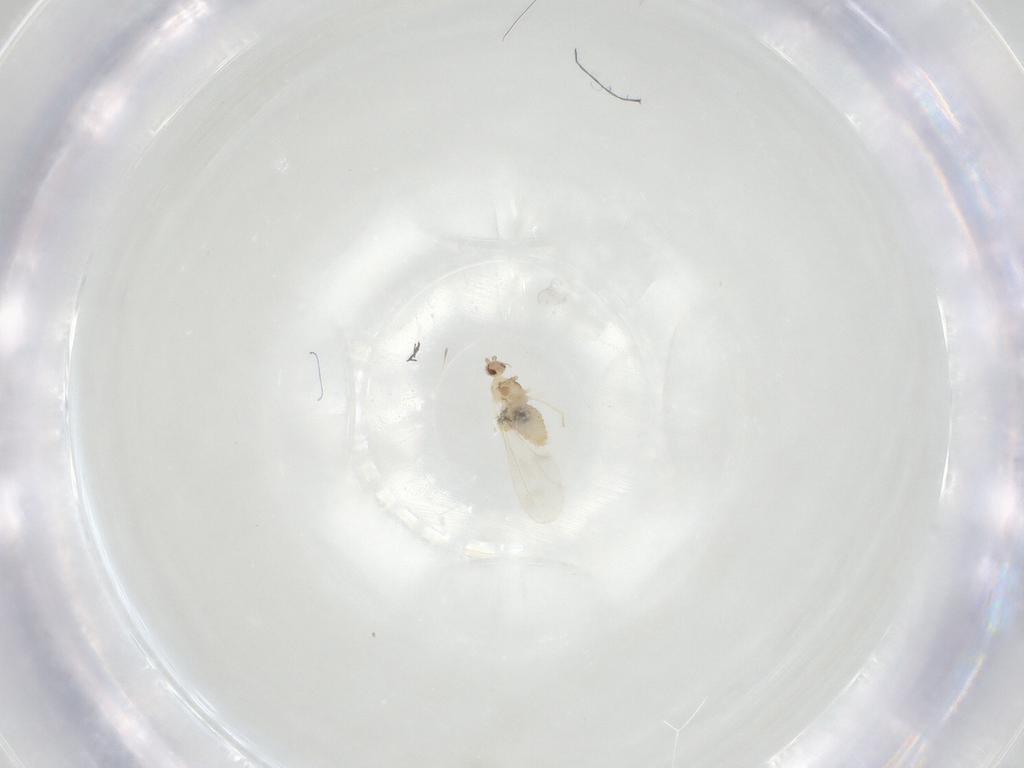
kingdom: Animalia
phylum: Arthropoda
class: Insecta
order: Diptera
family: Cecidomyiidae
